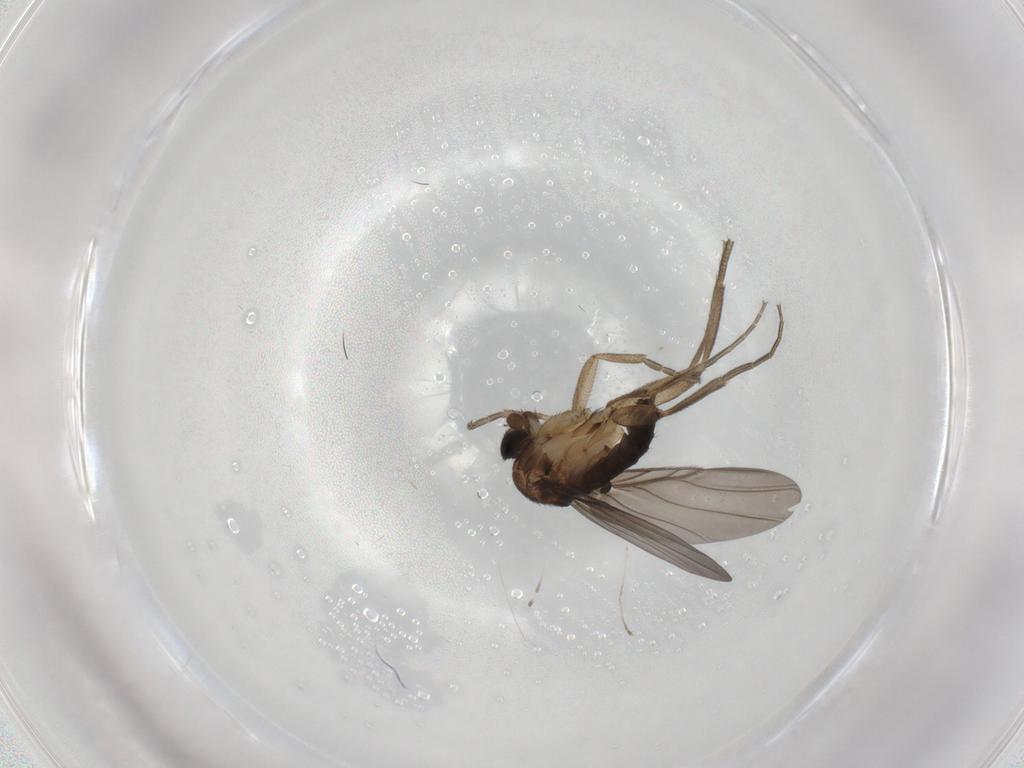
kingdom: Animalia
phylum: Arthropoda
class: Insecta
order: Diptera
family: Phoridae
